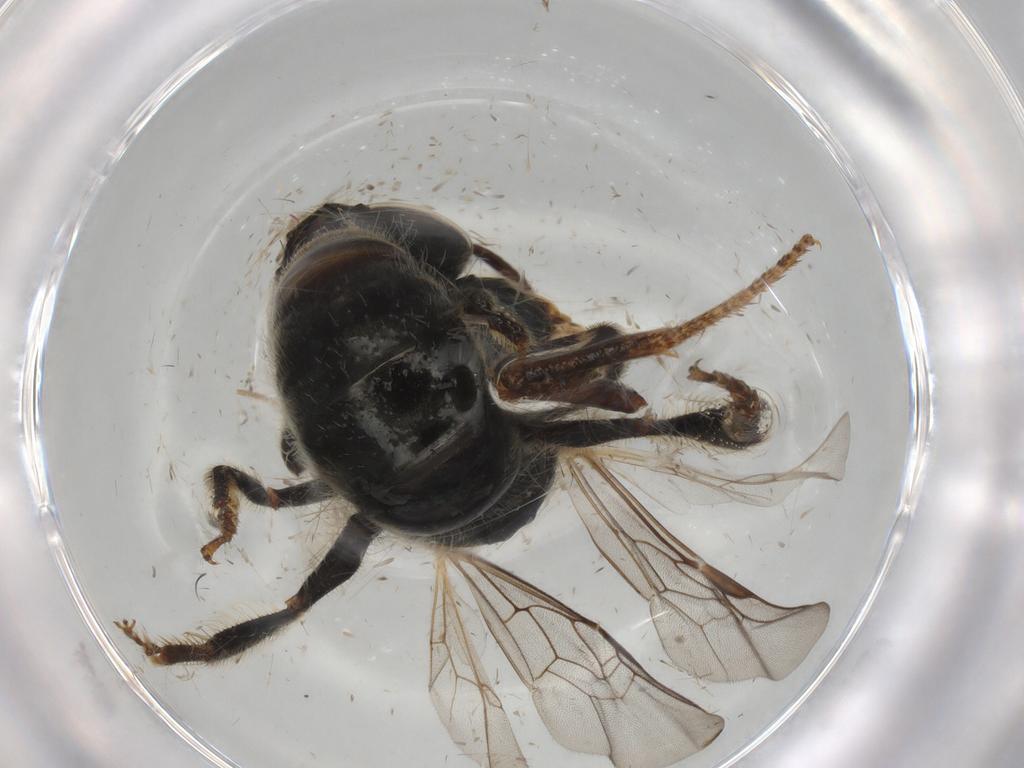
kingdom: Animalia
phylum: Arthropoda
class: Insecta
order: Hymenoptera
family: Halictidae
